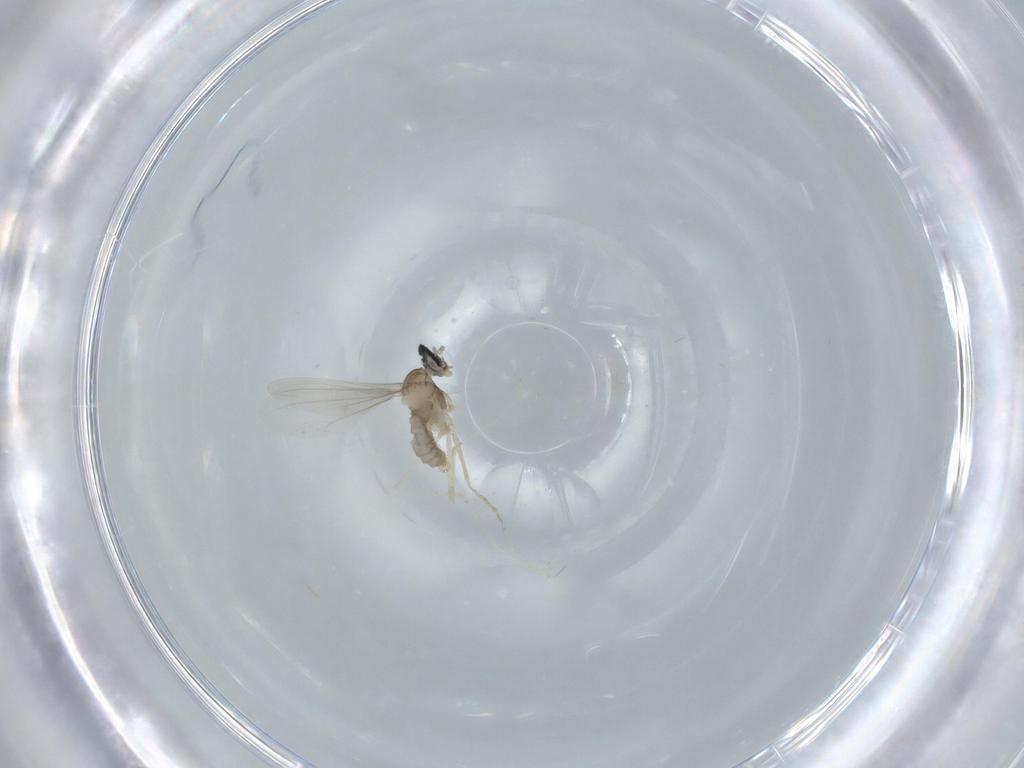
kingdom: Animalia
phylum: Arthropoda
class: Insecta
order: Diptera
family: Cecidomyiidae
